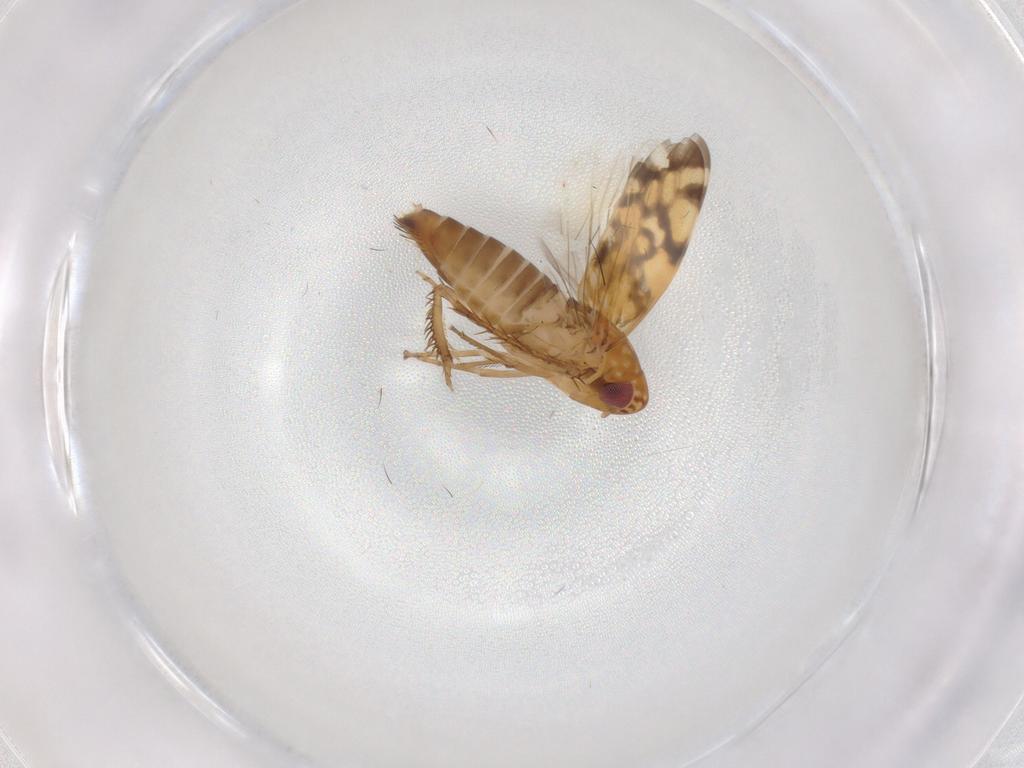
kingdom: Animalia
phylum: Arthropoda
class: Insecta
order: Hemiptera
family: Cicadellidae
